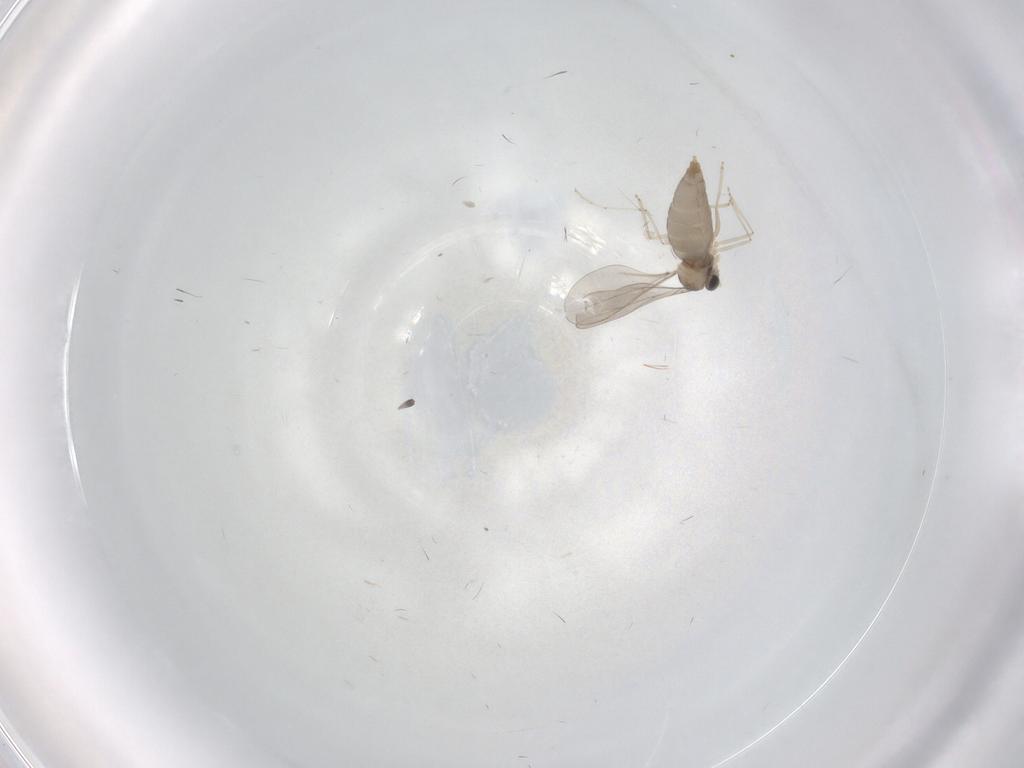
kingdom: Animalia
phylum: Arthropoda
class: Insecta
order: Diptera
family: Cecidomyiidae
